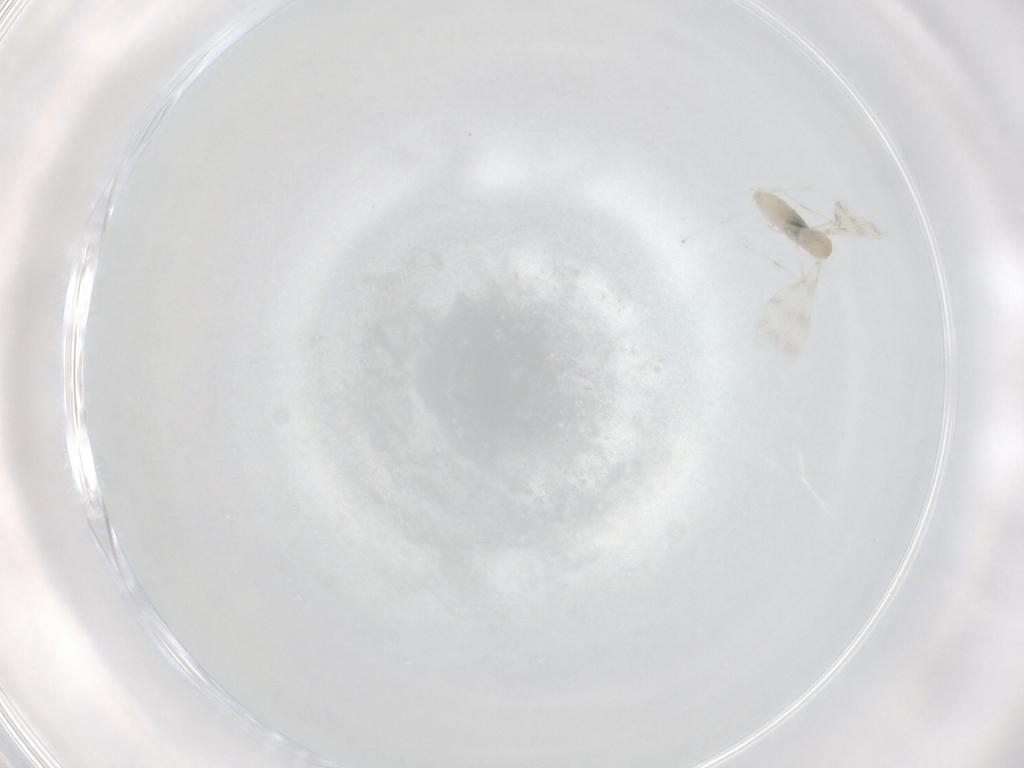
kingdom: Animalia
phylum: Arthropoda
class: Insecta
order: Diptera
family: Cecidomyiidae
